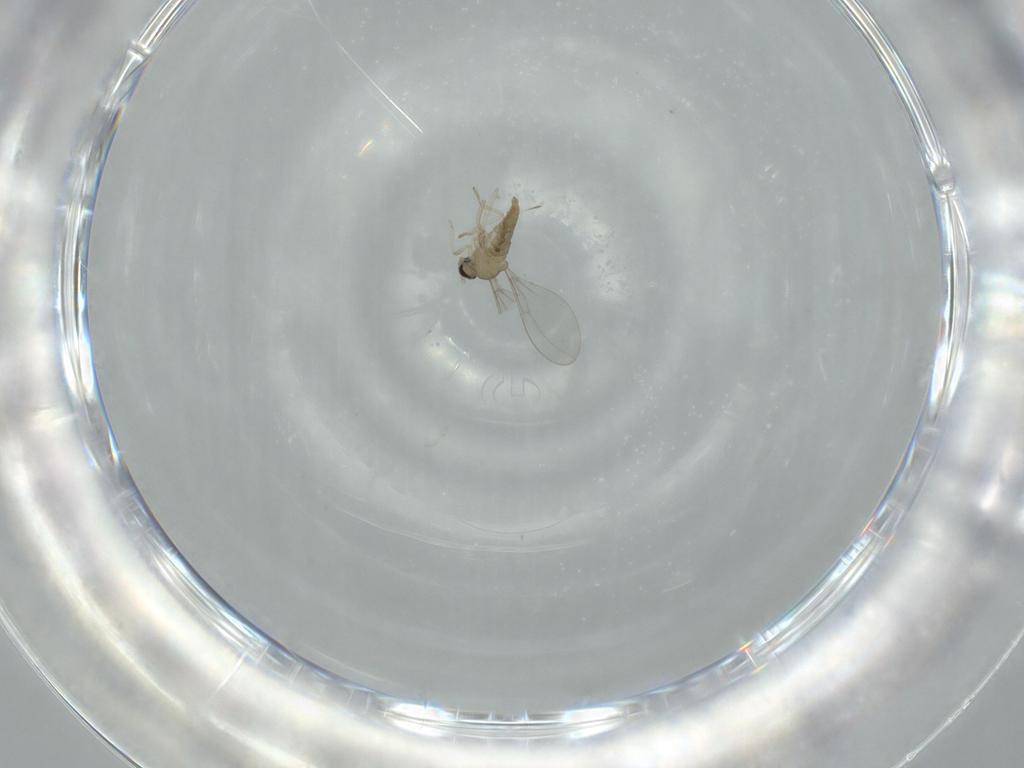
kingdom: Animalia
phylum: Arthropoda
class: Insecta
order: Diptera
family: Cecidomyiidae
